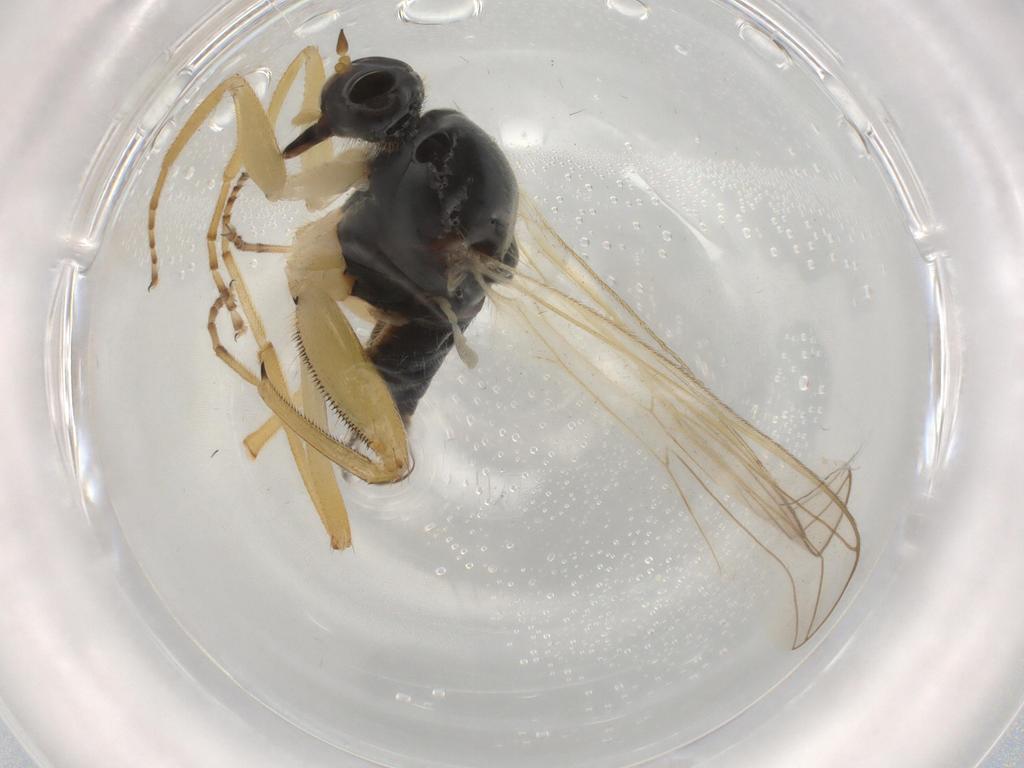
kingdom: Animalia
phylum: Arthropoda
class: Insecta
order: Diptera
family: Hybotidae
